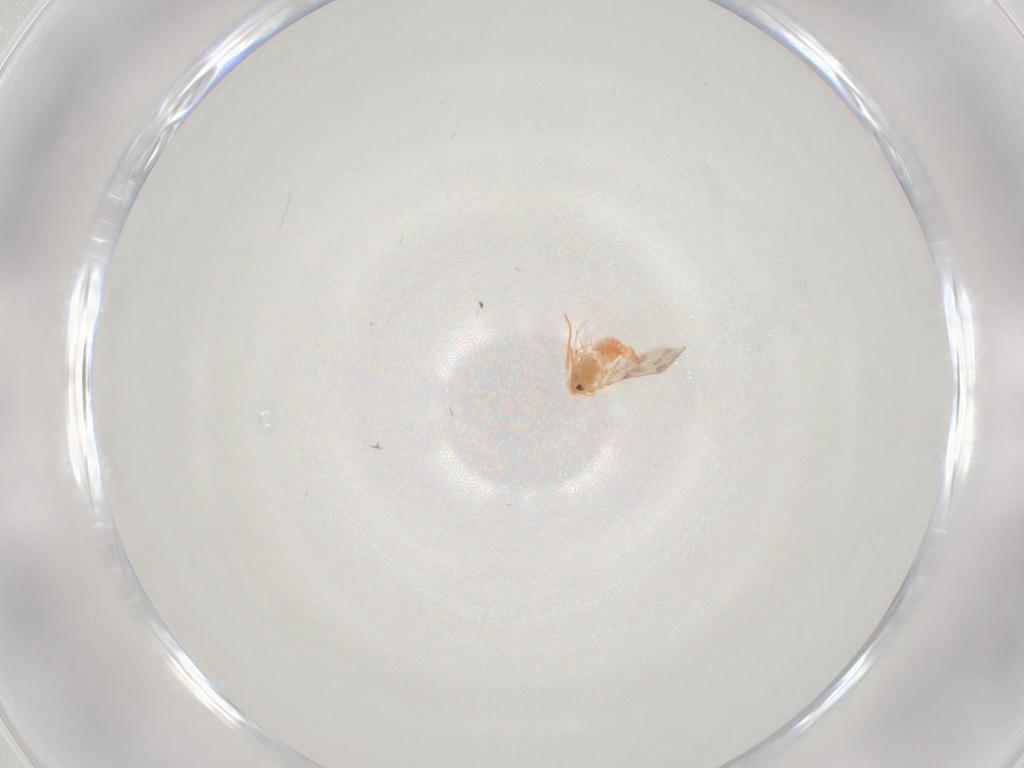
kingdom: Animalia
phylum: Arthropoda
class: Insecta
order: Hemiptera
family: Aleyrodidae
